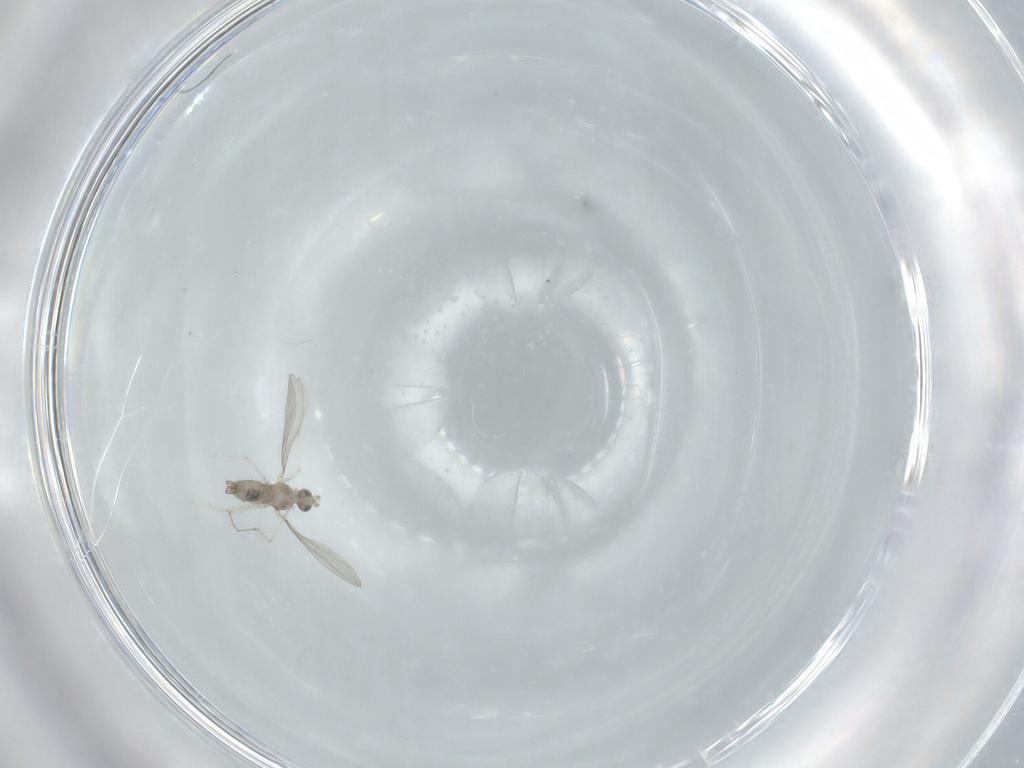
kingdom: Animalia
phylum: Arthropoda
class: Insecta
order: Diptera
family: Cecidomyiidae
